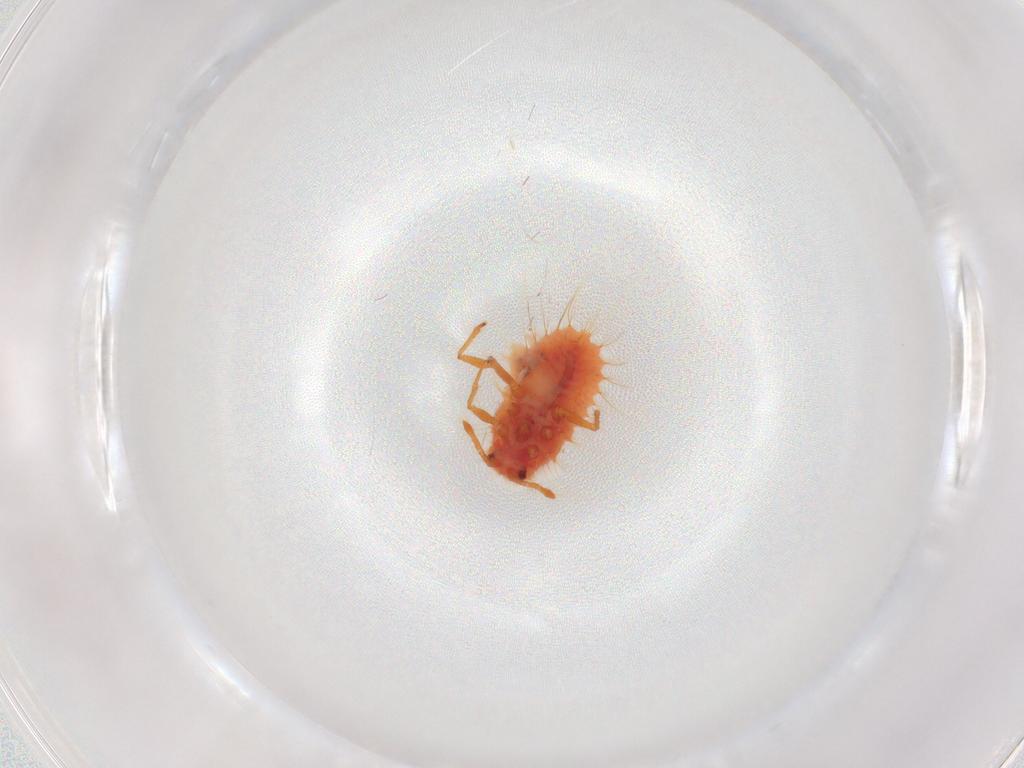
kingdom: Animalia
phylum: Arthropoda
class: Insecta
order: Hemiptera
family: Coccoidea_incertae_sedis
